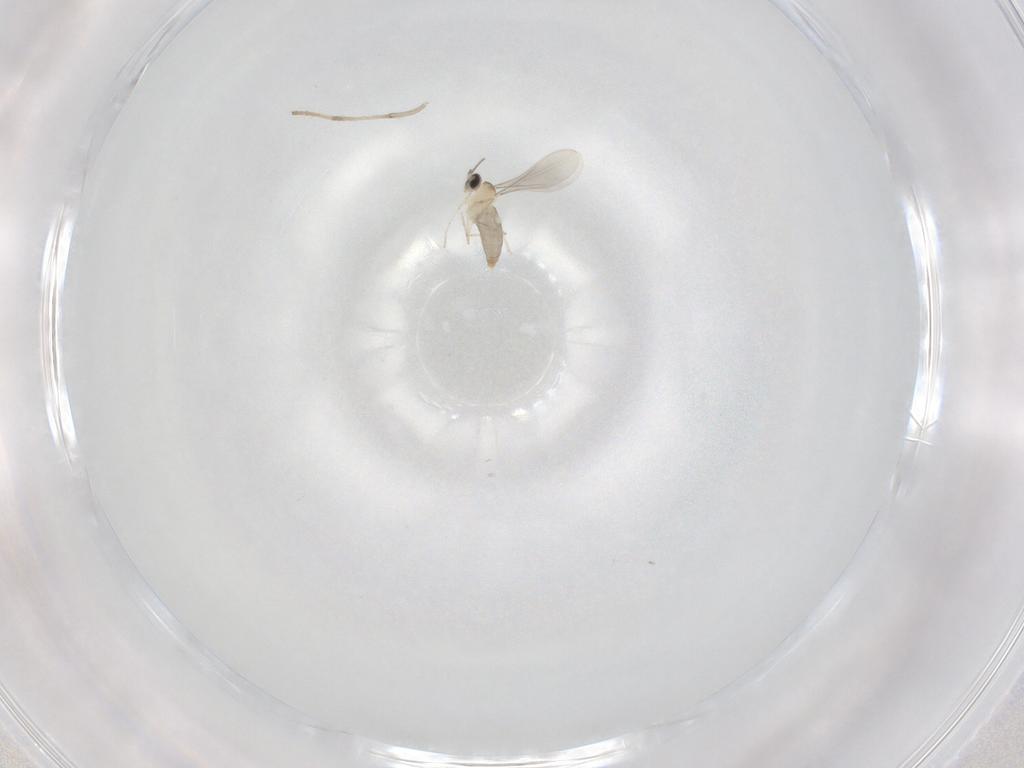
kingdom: Animalia
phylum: Arthropoda
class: Insecta
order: Diptera
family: Psychodidae
